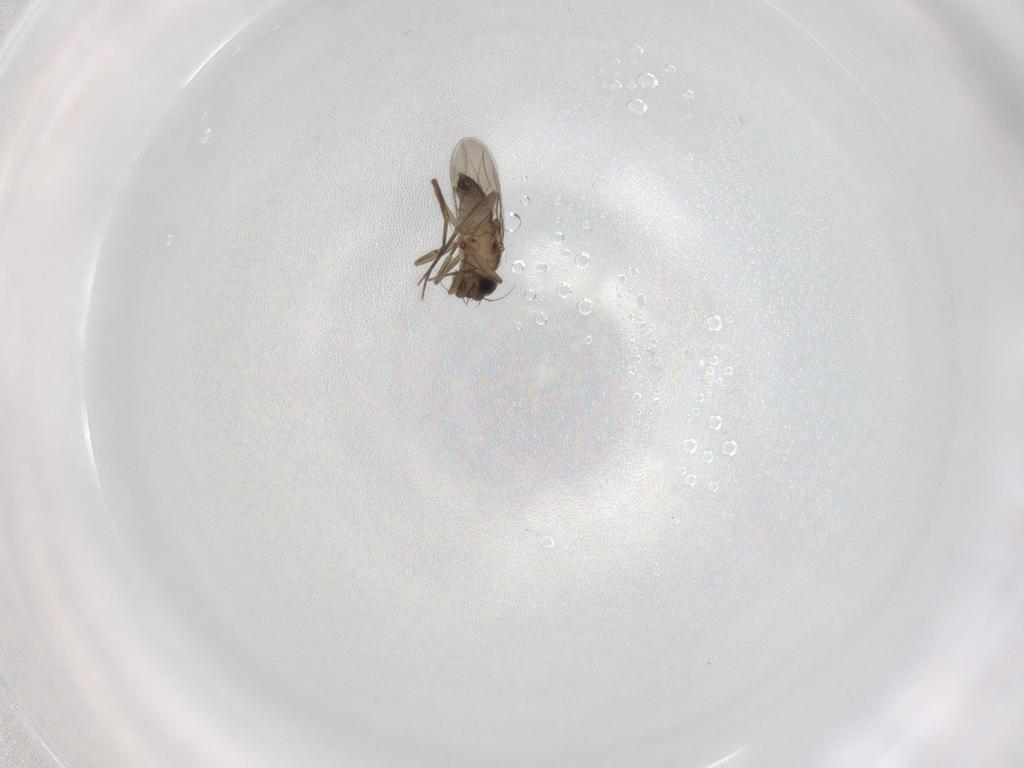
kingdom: Animalia
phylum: Arthropoda
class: Insecta
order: Diptera
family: Phoridae
